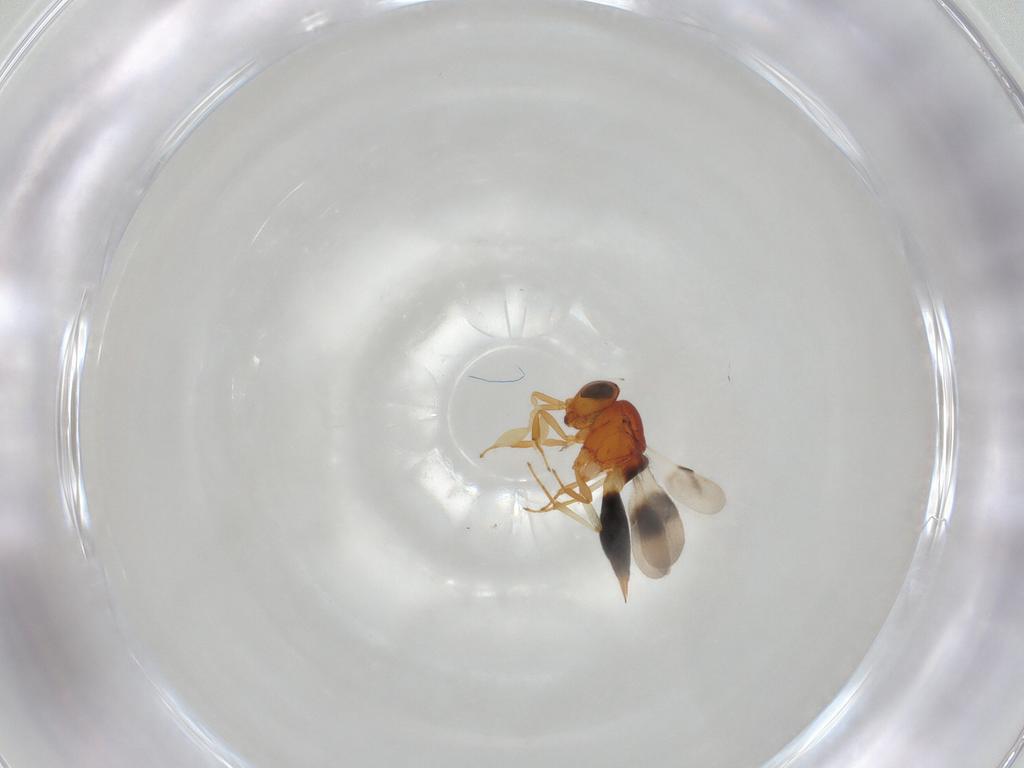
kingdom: Animalia
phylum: Arthropoda
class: Insecta
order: Hymenoptera
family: Scelionidae
